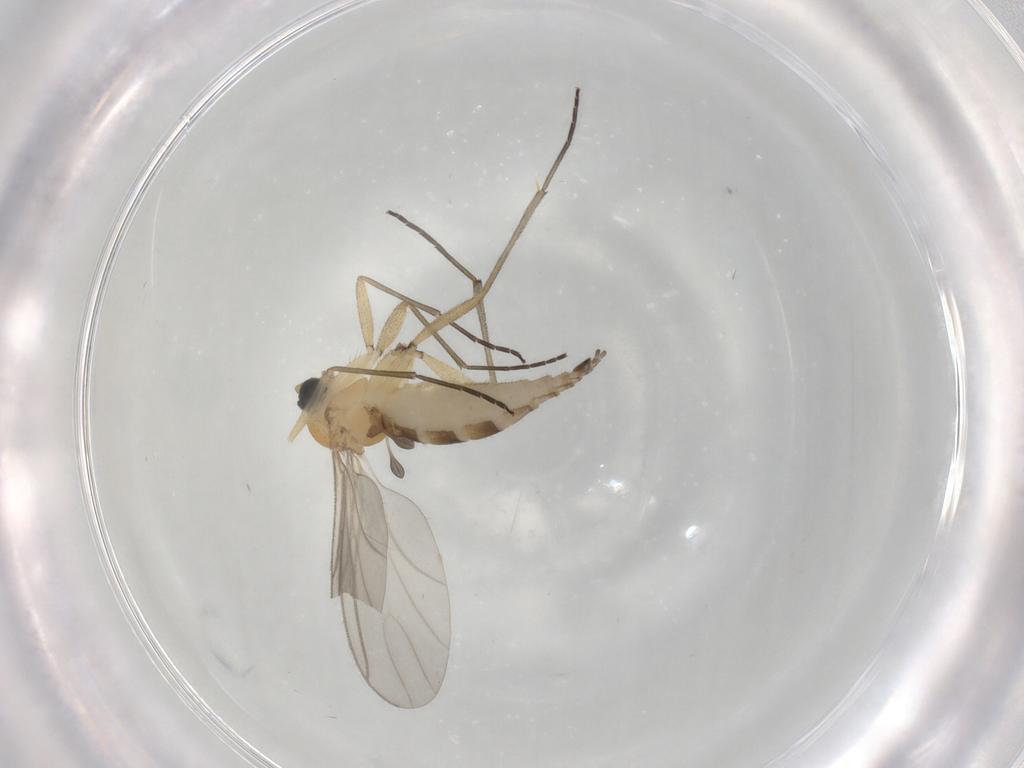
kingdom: Animalia
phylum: Arthropoda
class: Insecta
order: Diptera
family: Sciaridae
